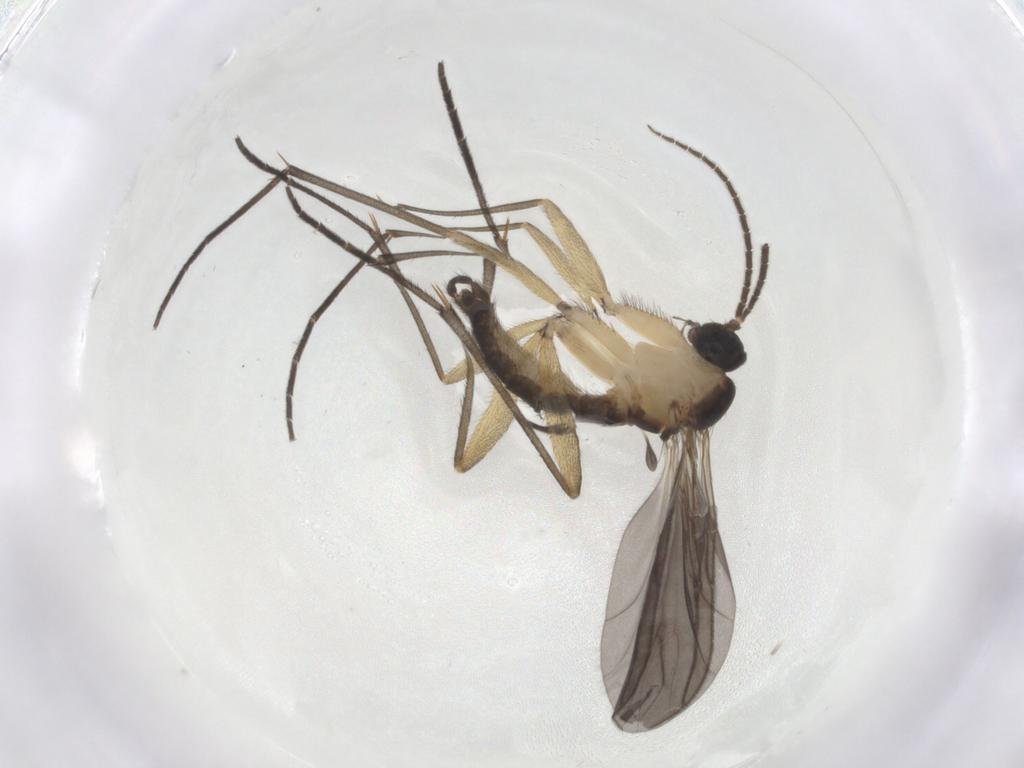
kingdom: Animalia
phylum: Arthropoda
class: Insecta
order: Diptera
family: Sciaridae
